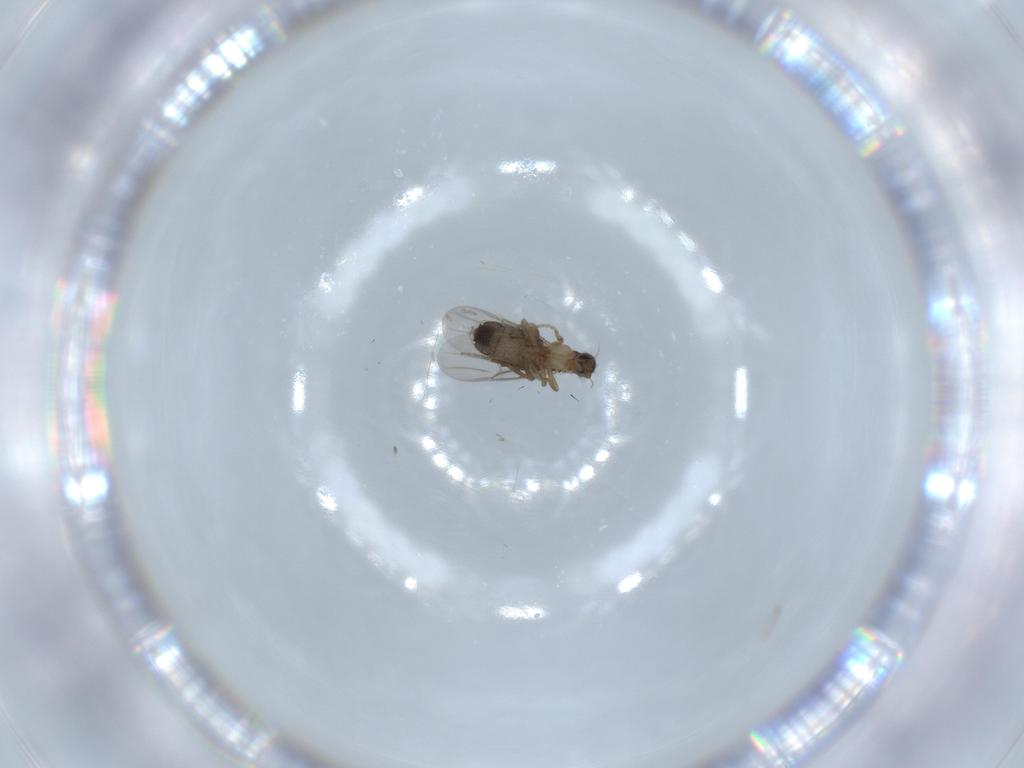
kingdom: Animalia
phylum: Arthropoda
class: Insecta
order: Diptera
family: Phoridae
